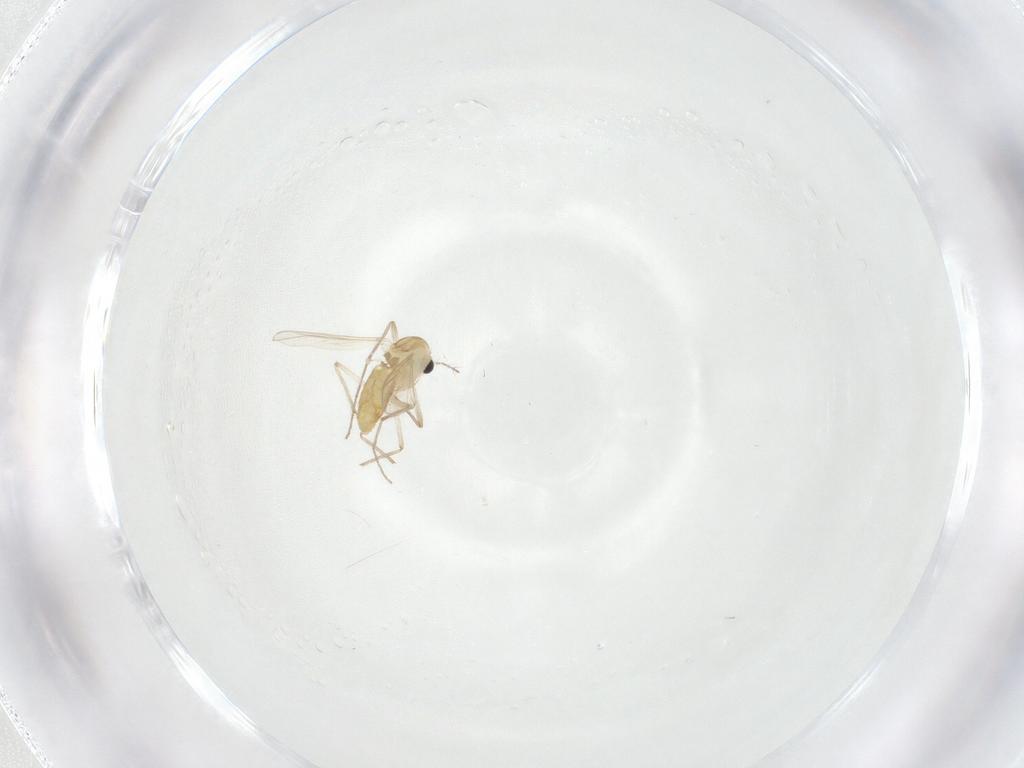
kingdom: Animalia
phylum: Arthropoda
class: Insecta
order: Diptera
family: Chironomidae
